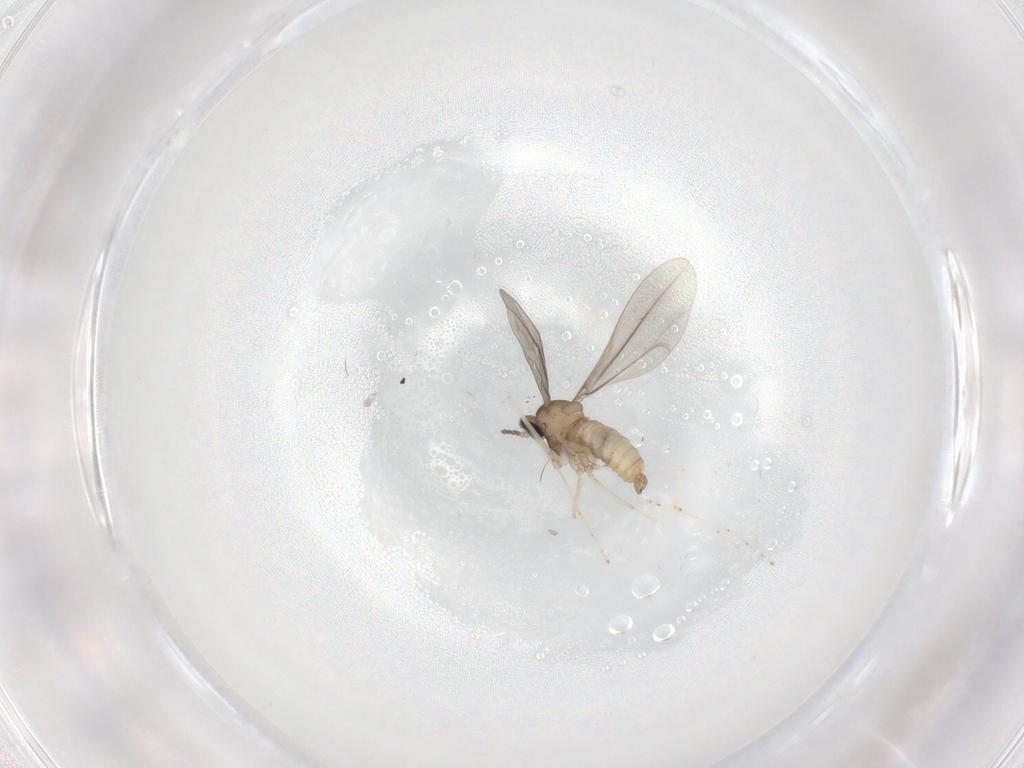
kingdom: Animalia
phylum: Arthropoda
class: Insecta
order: Diptera
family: Cecidomyiidae
